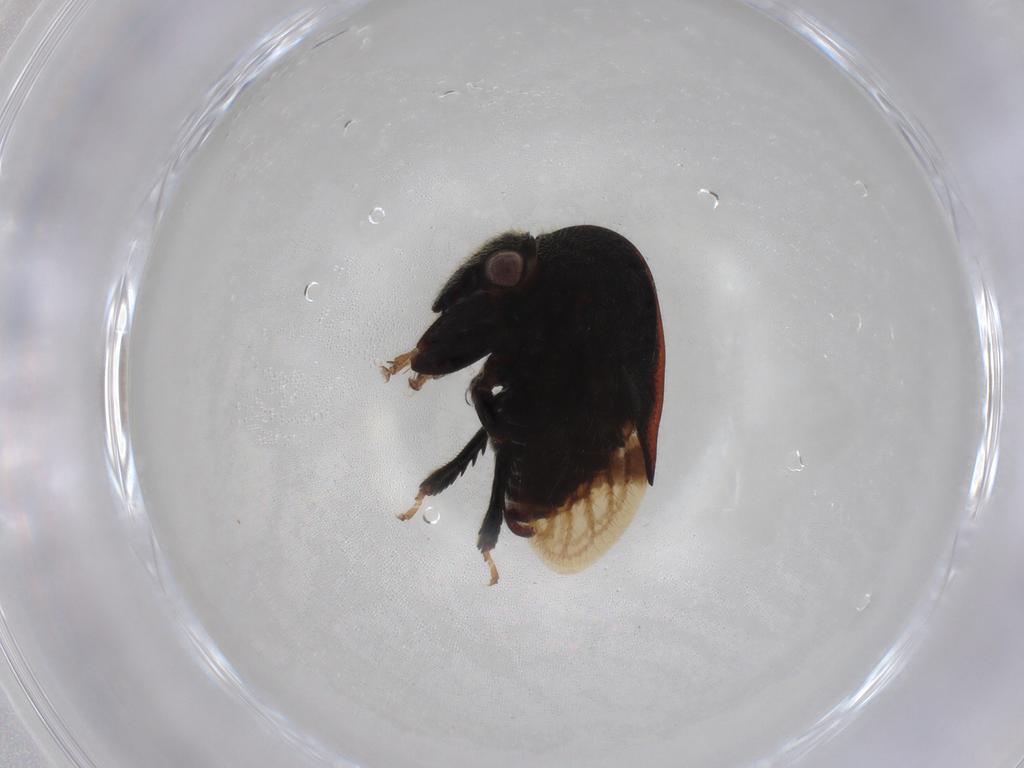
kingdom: Animalia
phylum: Arthropoda
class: Insecta
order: Hemiptera
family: Membracidae
